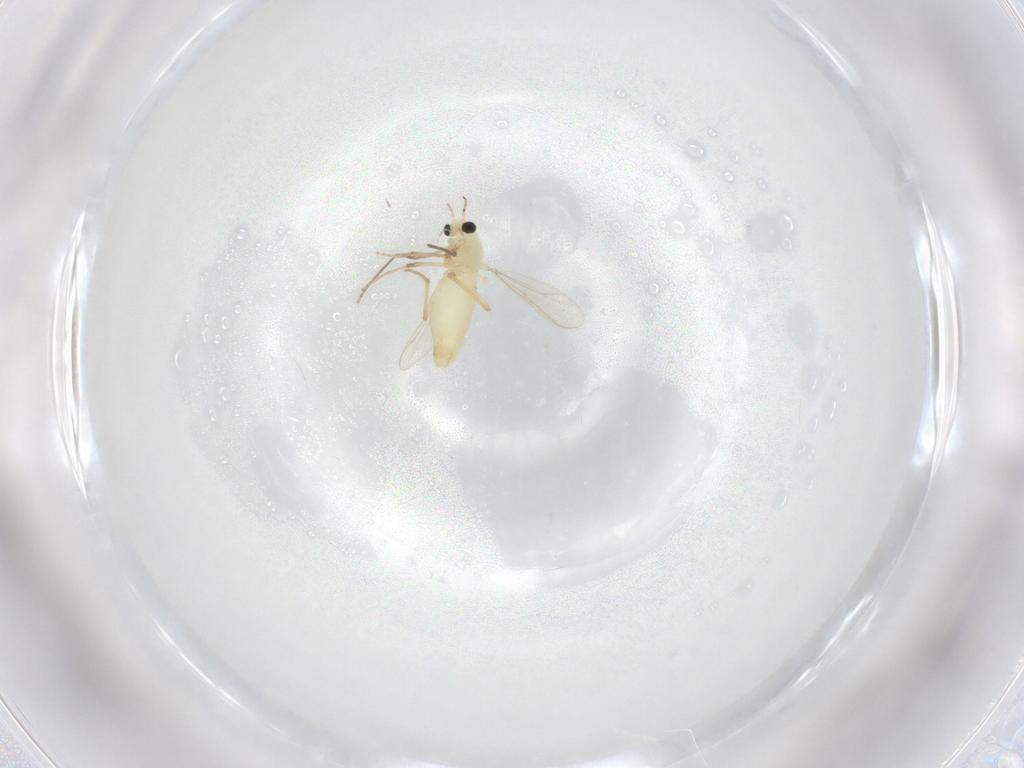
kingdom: Animalia
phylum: Arthropoda
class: Insecta
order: Diptera
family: Chironomidae
